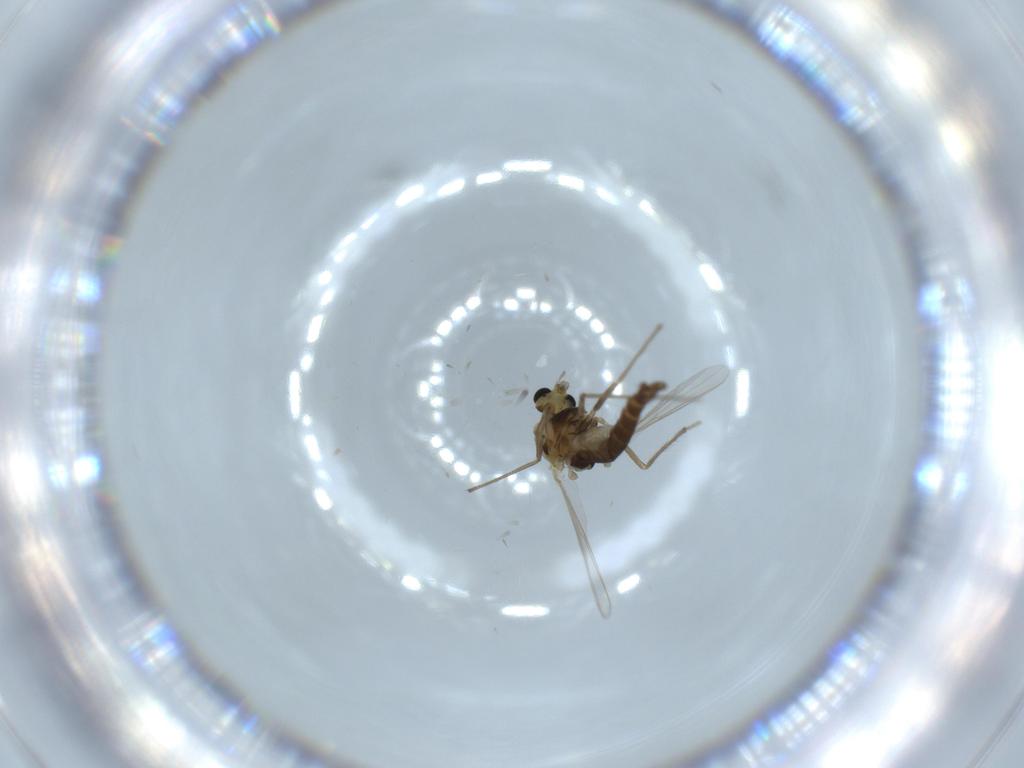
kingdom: Animalia
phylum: Arthropoda
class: Insecta
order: Diptera
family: Chironomidae
